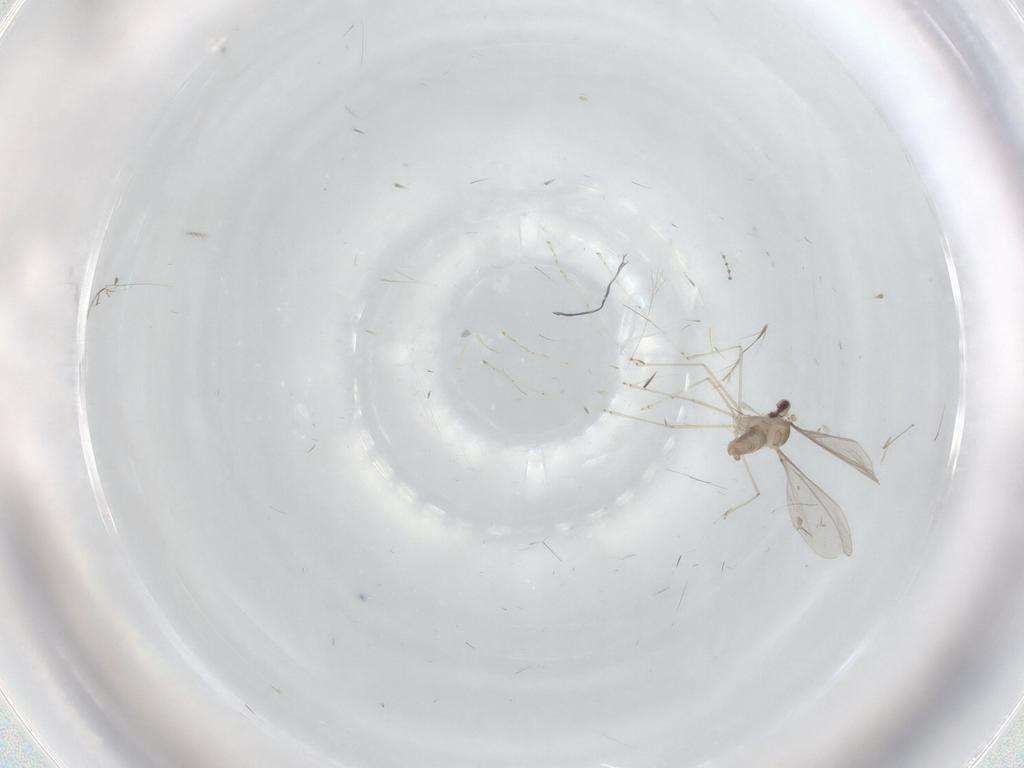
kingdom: Animalia
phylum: Arthropoda
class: Insecta
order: Diptera
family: Cecidomyiidae
